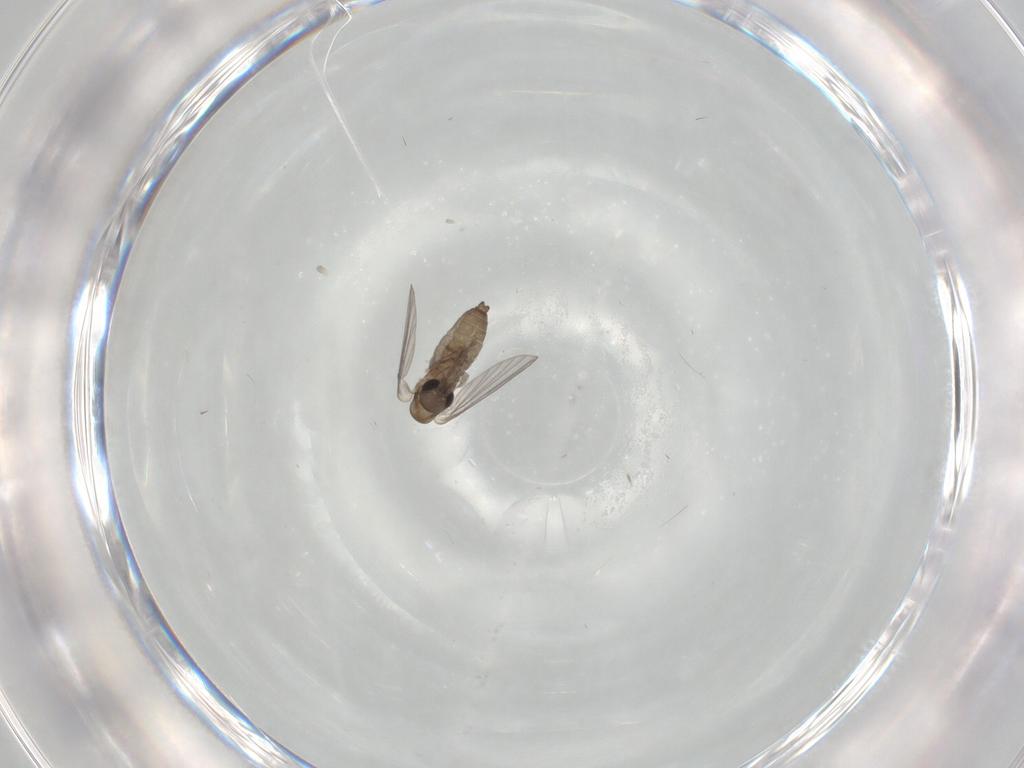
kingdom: Animalia
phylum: Arthropoda
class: Insecta
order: Diptera
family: Psychodidae
